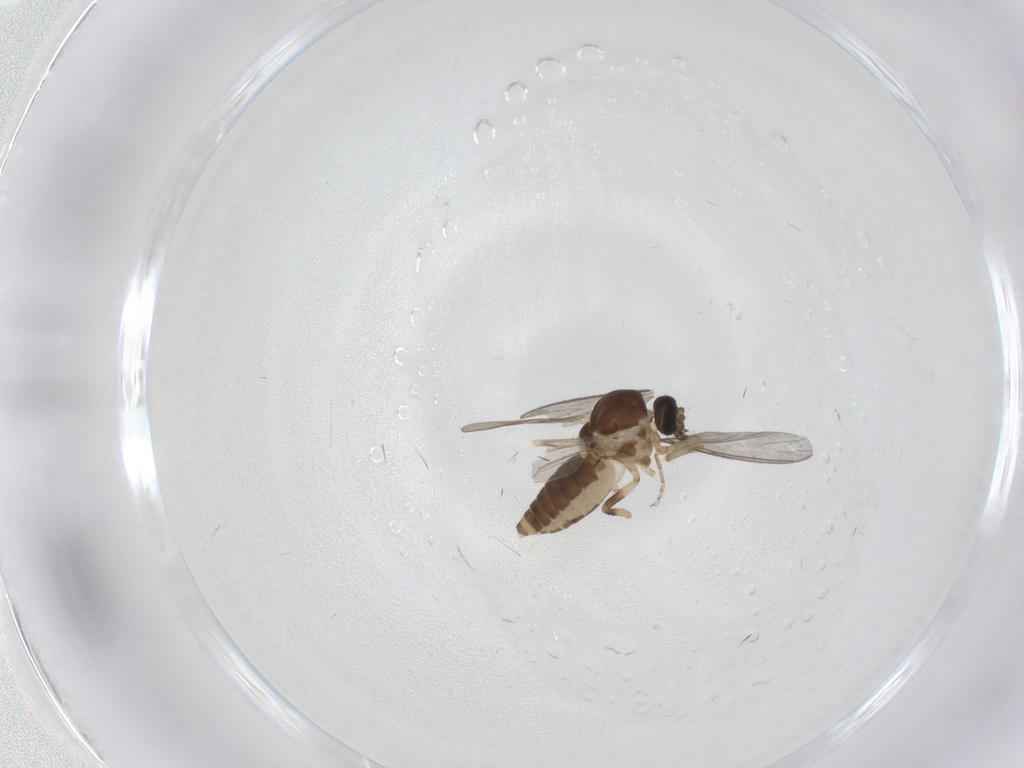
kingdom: Animalia
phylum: Arthropoda
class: Insecta
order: Diptera
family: Ceratopogonidae
